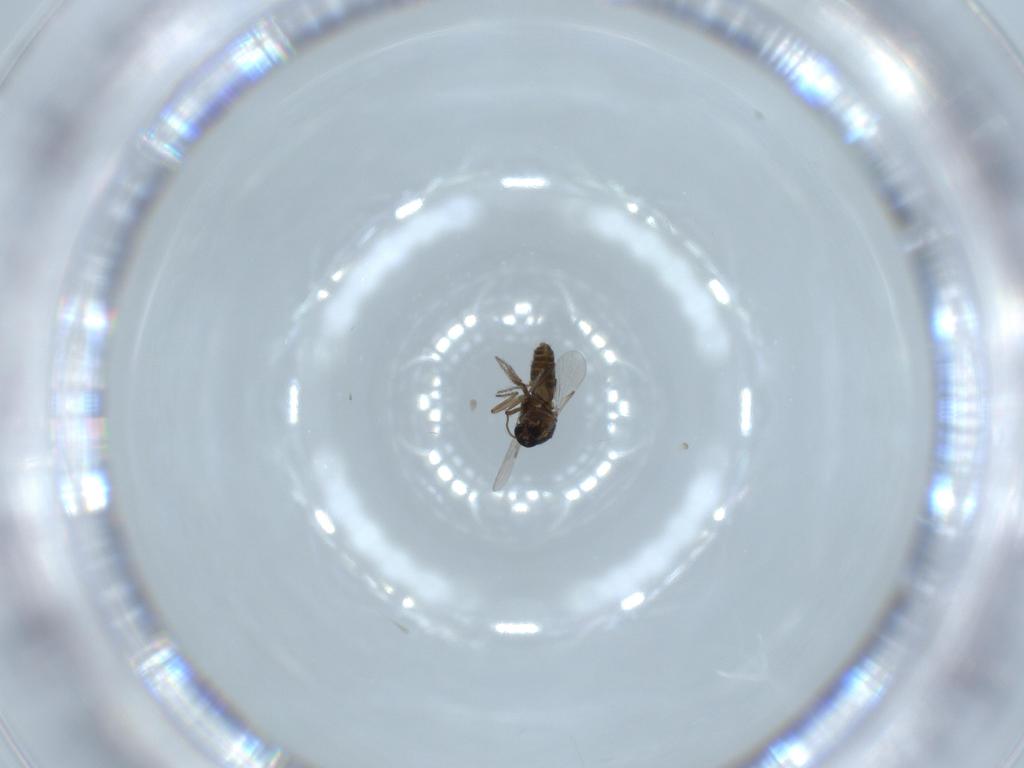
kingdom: Animalia
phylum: Arthropoda
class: Insecta
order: Diptera
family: Ceratopogonidae
